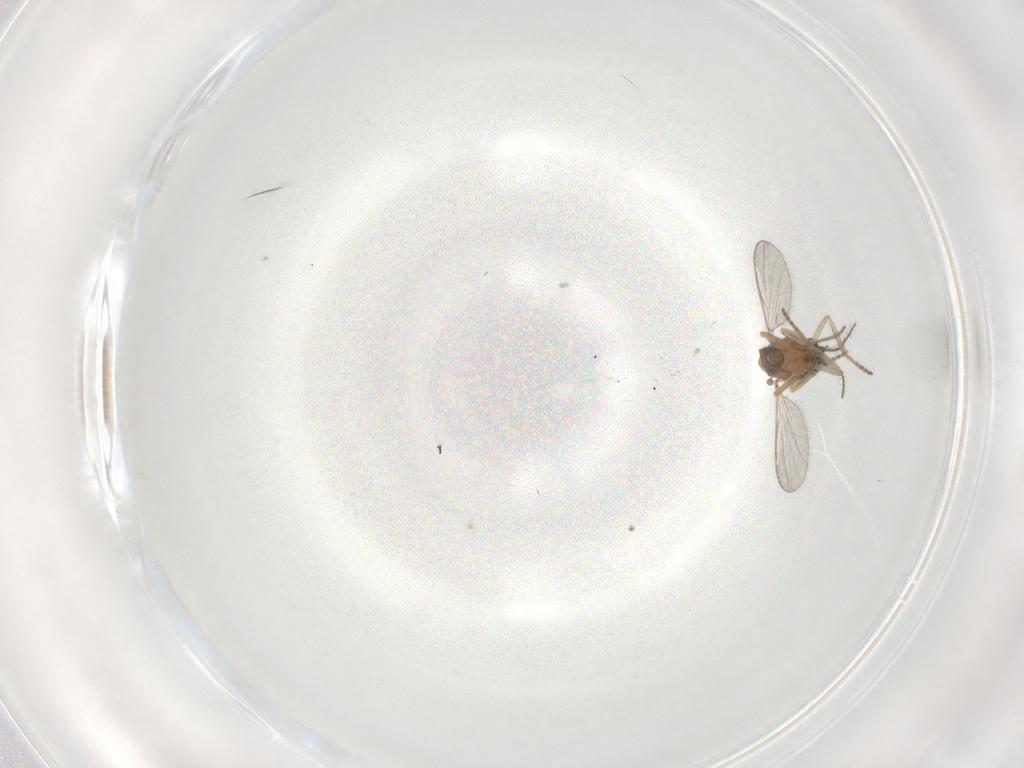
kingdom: Animalia
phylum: Arthropoda
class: Insecta
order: Diptera
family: Ceratopogonidae
